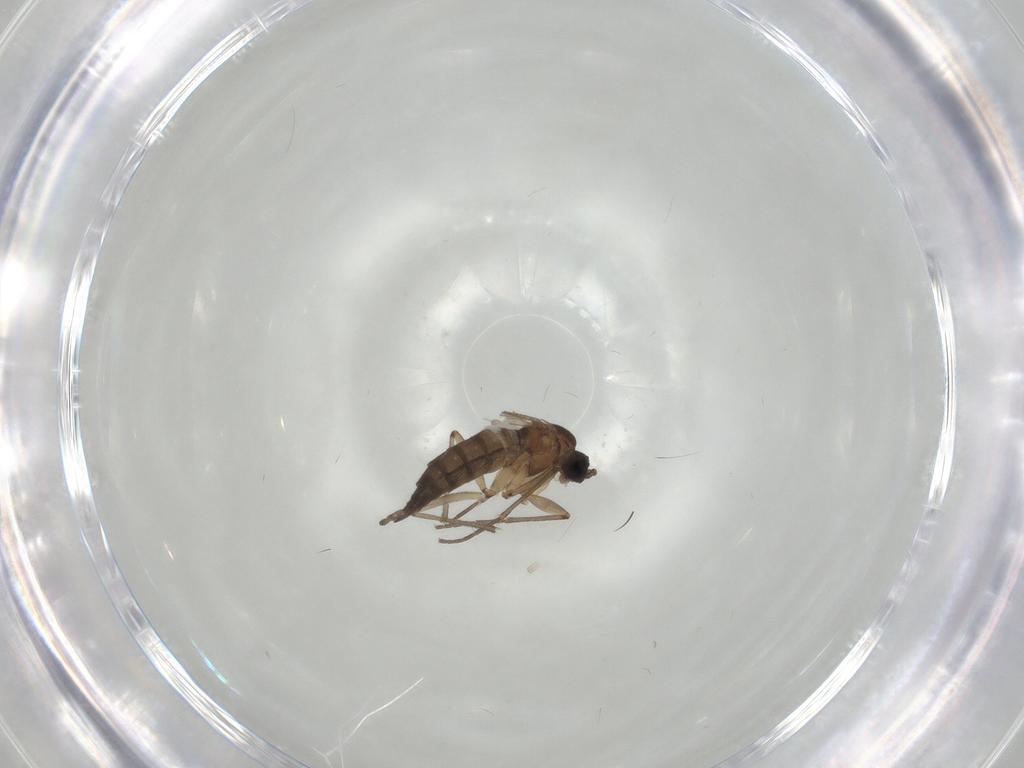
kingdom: Animalia
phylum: Arthropoda
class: Insecta
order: Diptera
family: Sciaridae
